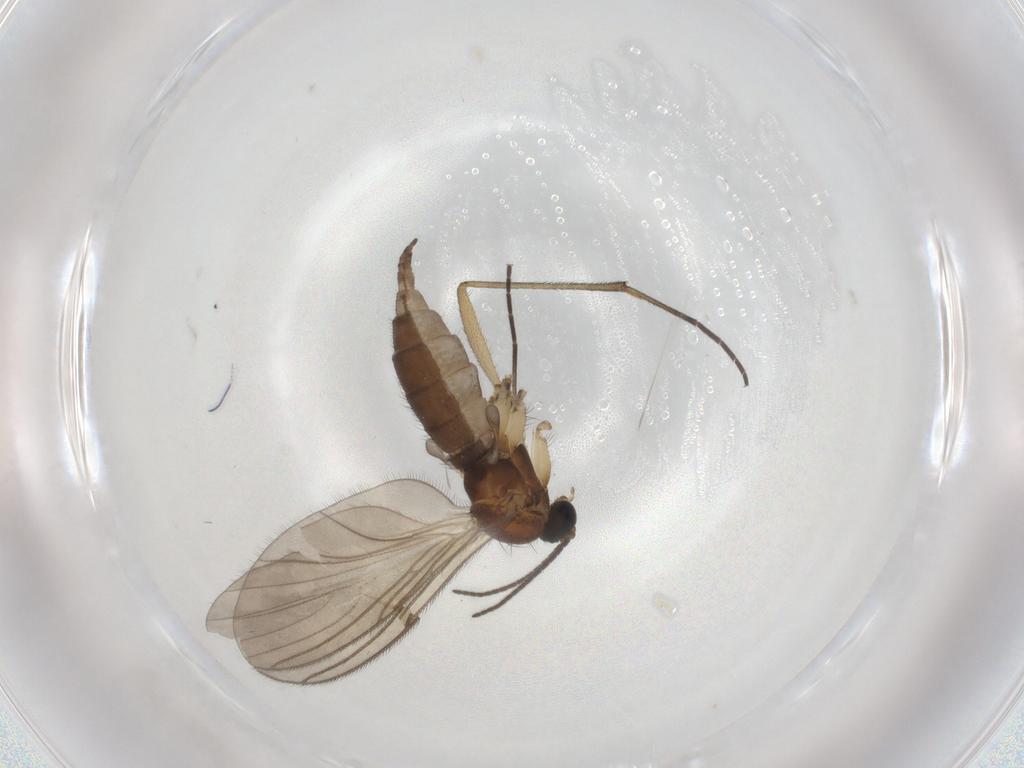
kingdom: Animalia
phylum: Arthropoda
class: Insecta
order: Diptera
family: Sciaridae
